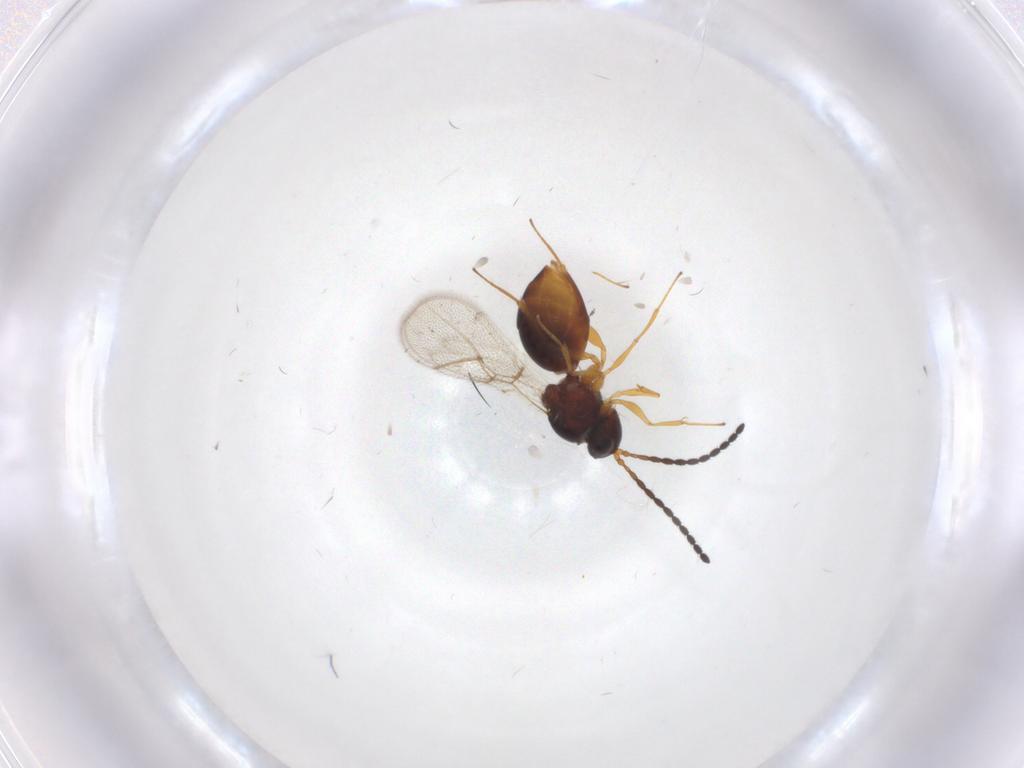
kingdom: Animalia
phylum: Arthropoda
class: Insecta
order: Hymenoptera
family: Figitidae
